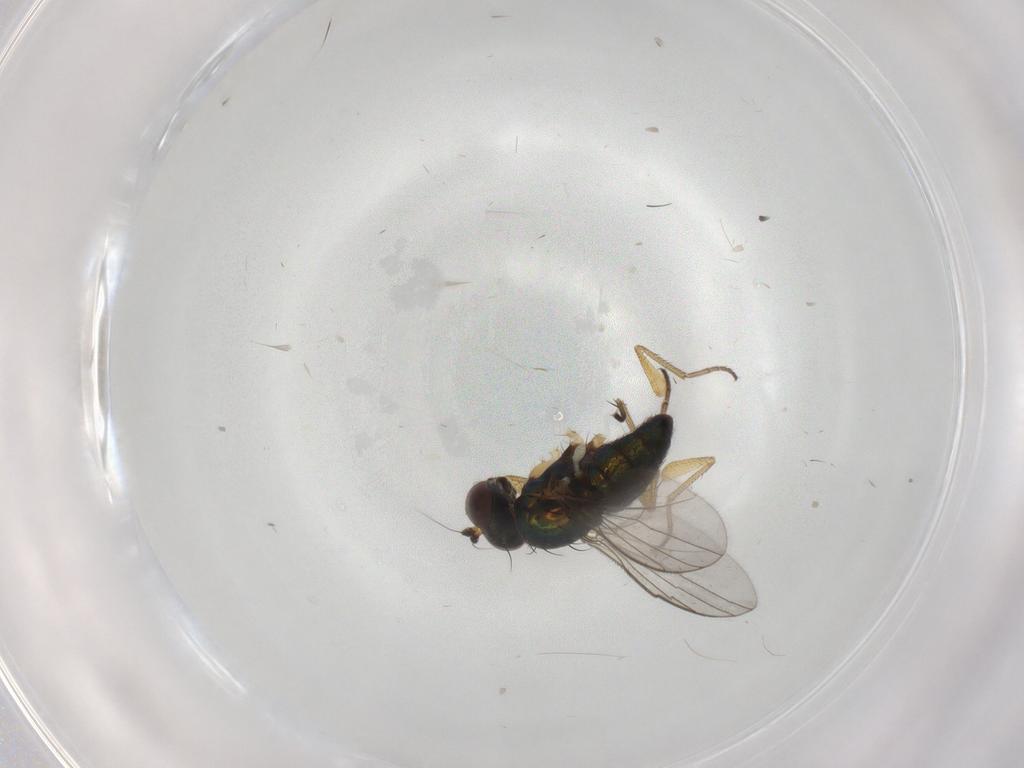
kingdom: Animalia
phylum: Arthropoda
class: Insecta
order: Diptera
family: Dolichopodidae
